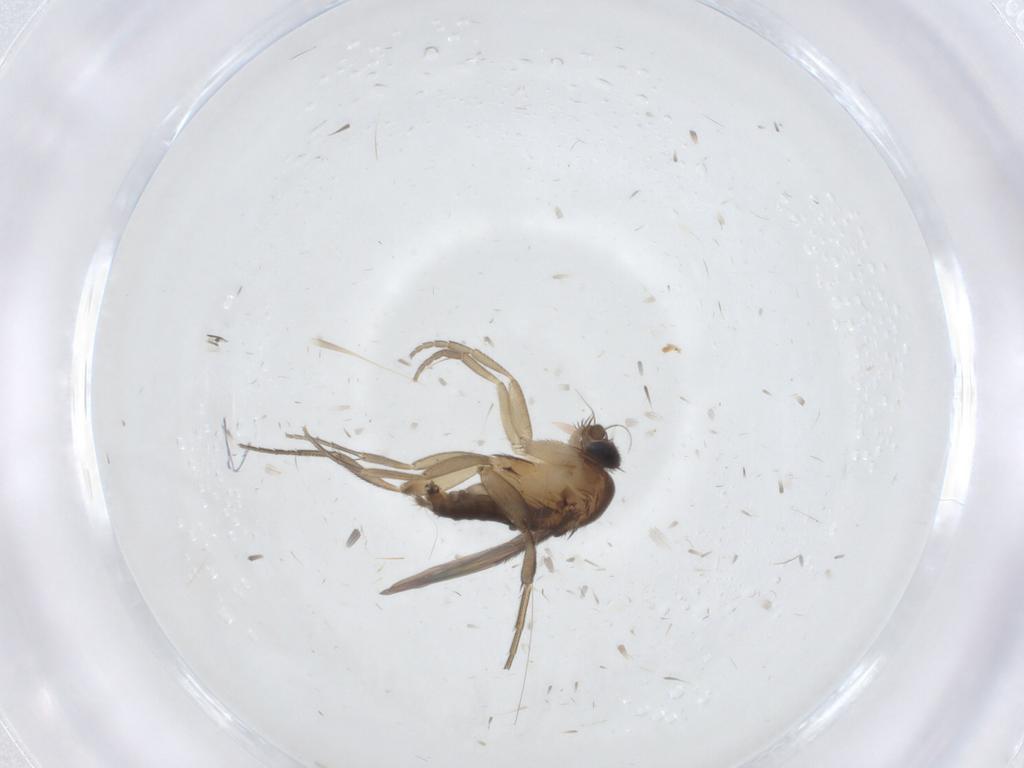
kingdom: Animalia
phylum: Arthropoda
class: Insecta
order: Diptera
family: Phoridae
